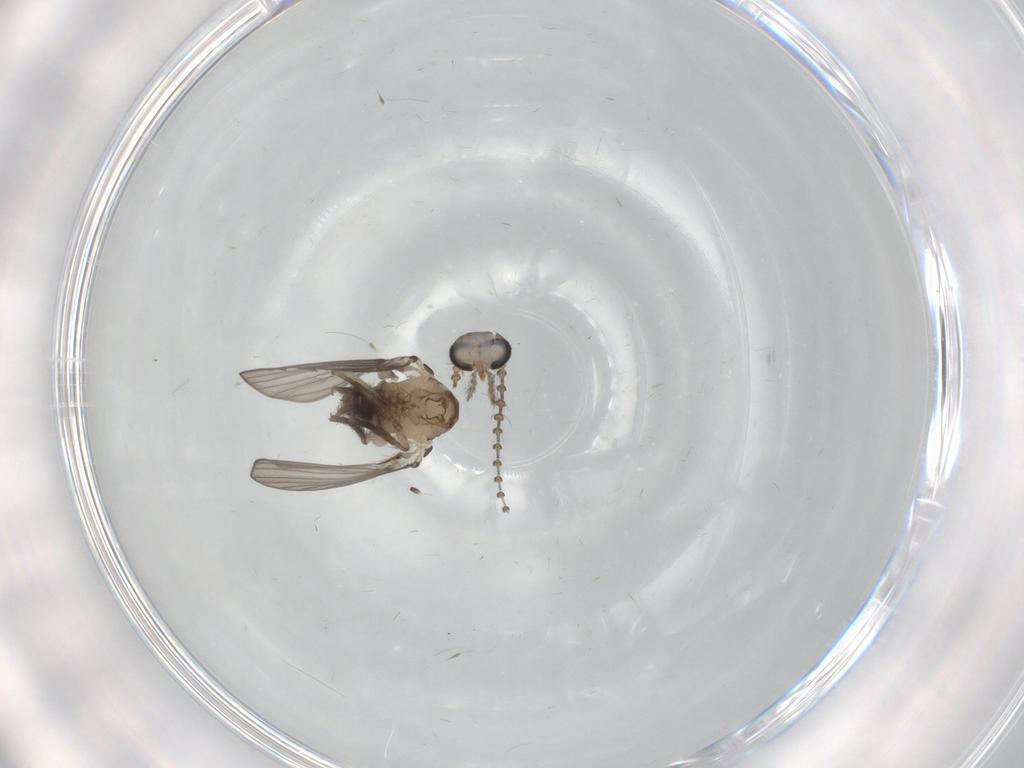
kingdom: Animalia
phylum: Arthropoda
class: Insecta
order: Diptera
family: Psychodidae
